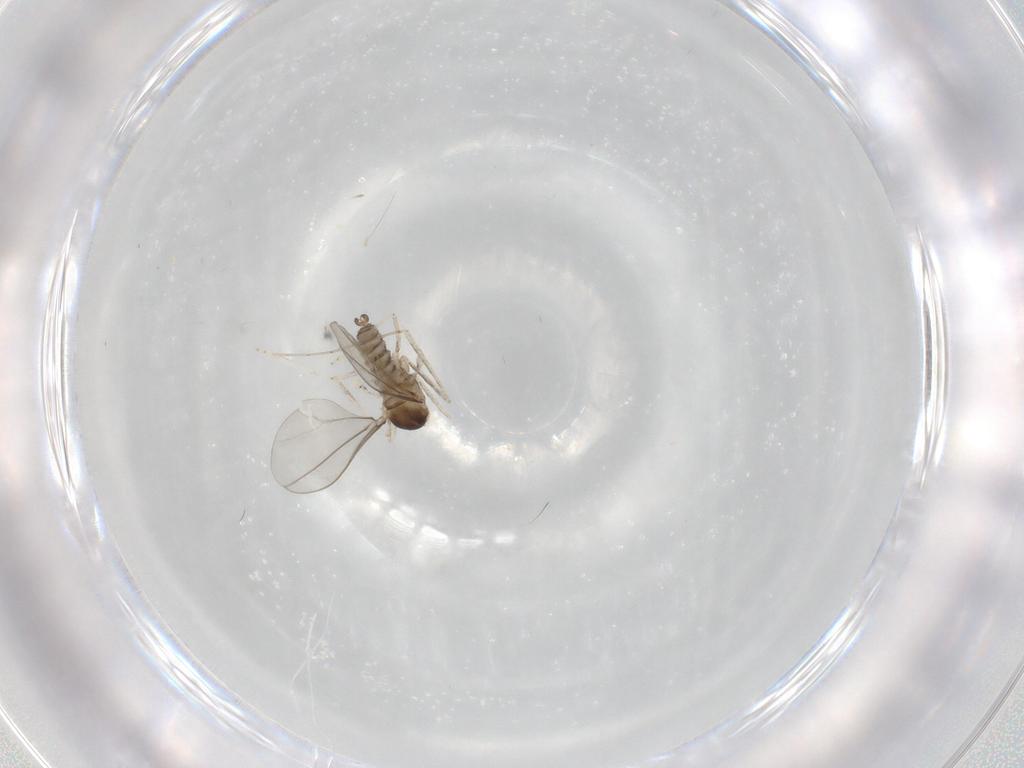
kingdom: Animalia
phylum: Arthropoda
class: Insecta
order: Diptera
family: Cecidomyiidae
